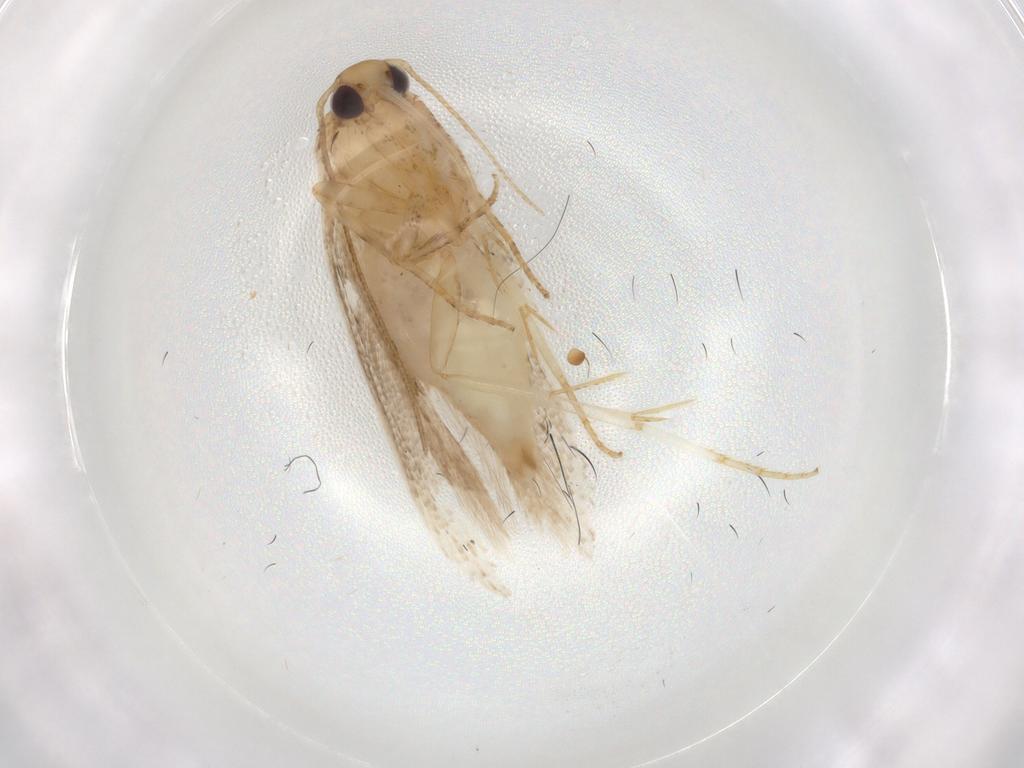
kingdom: Animalia
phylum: Arthropoda
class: Insecta
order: Lepidoptera
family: Gelechiidae
